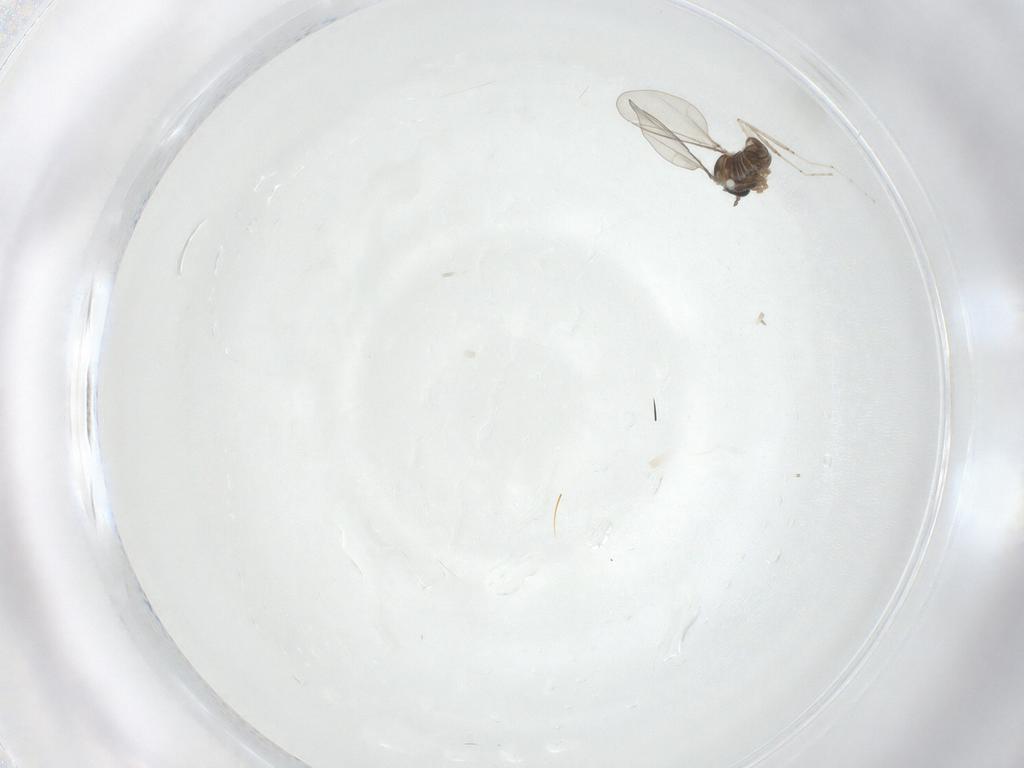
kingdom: Animalia
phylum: Arthropoda
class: Insecta
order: Diptera
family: Cecidomyiidae
